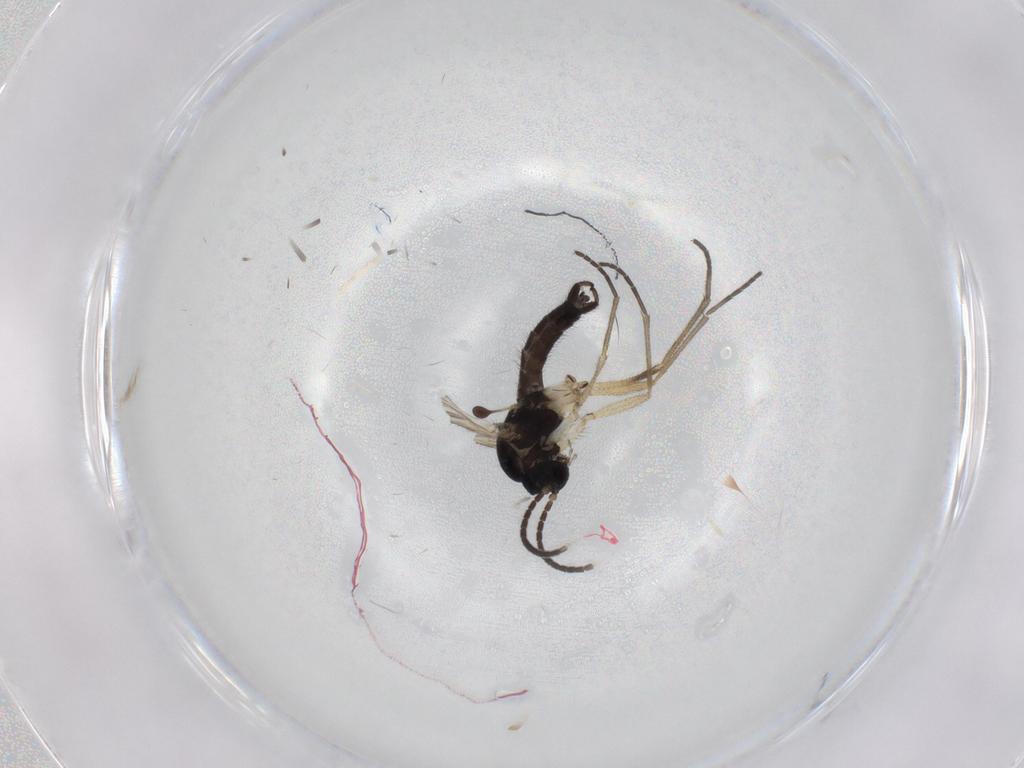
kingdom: Animalia
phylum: Arthropoda
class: Insecta
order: Diptera
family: Sciaridae
